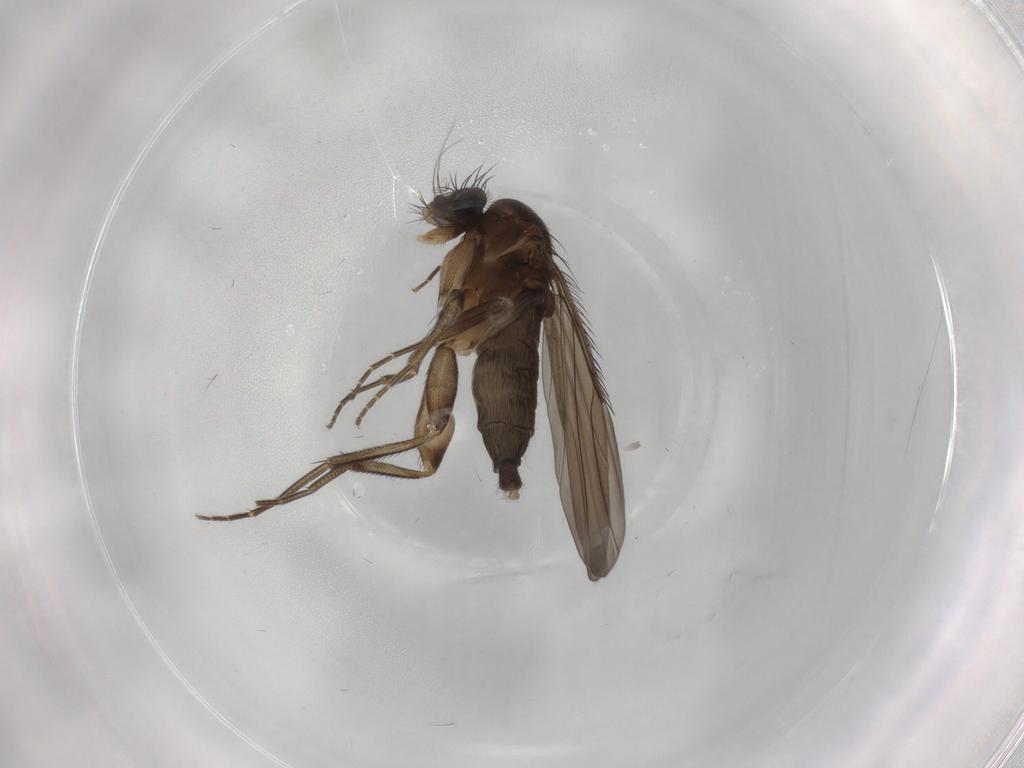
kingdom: Animalia
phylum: Arthropoda
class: Insecta
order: Diptera
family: Phoridae
